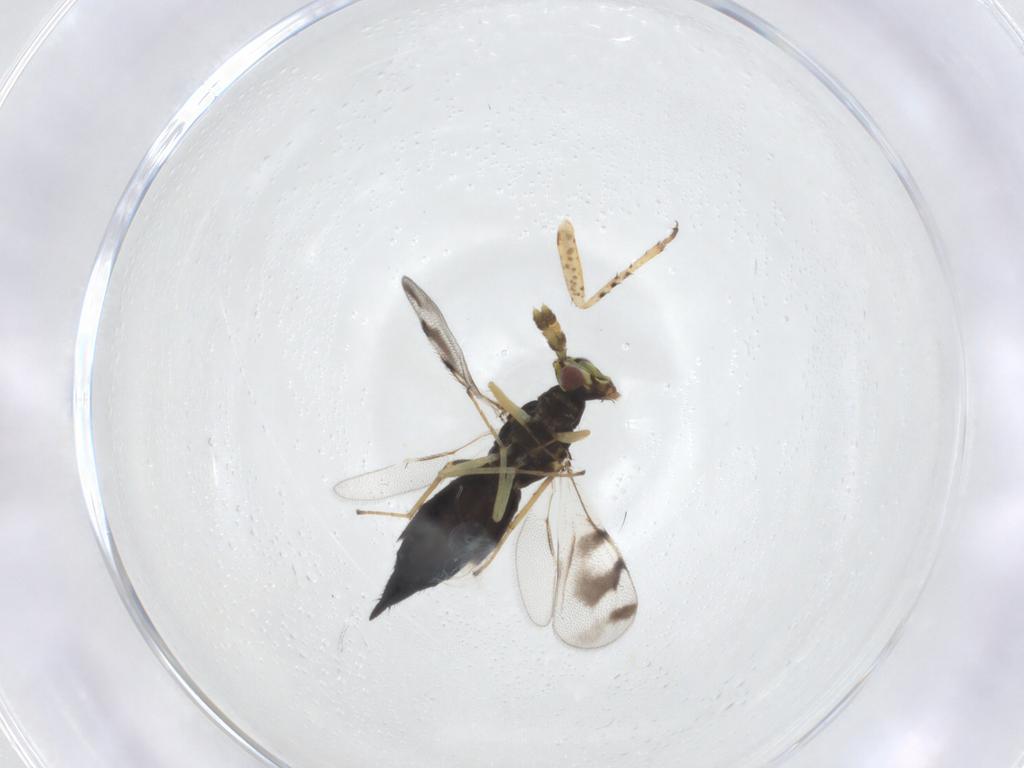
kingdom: Animalia
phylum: Arthropoda
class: Insecta
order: Hymenoptera
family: Eulophidae
